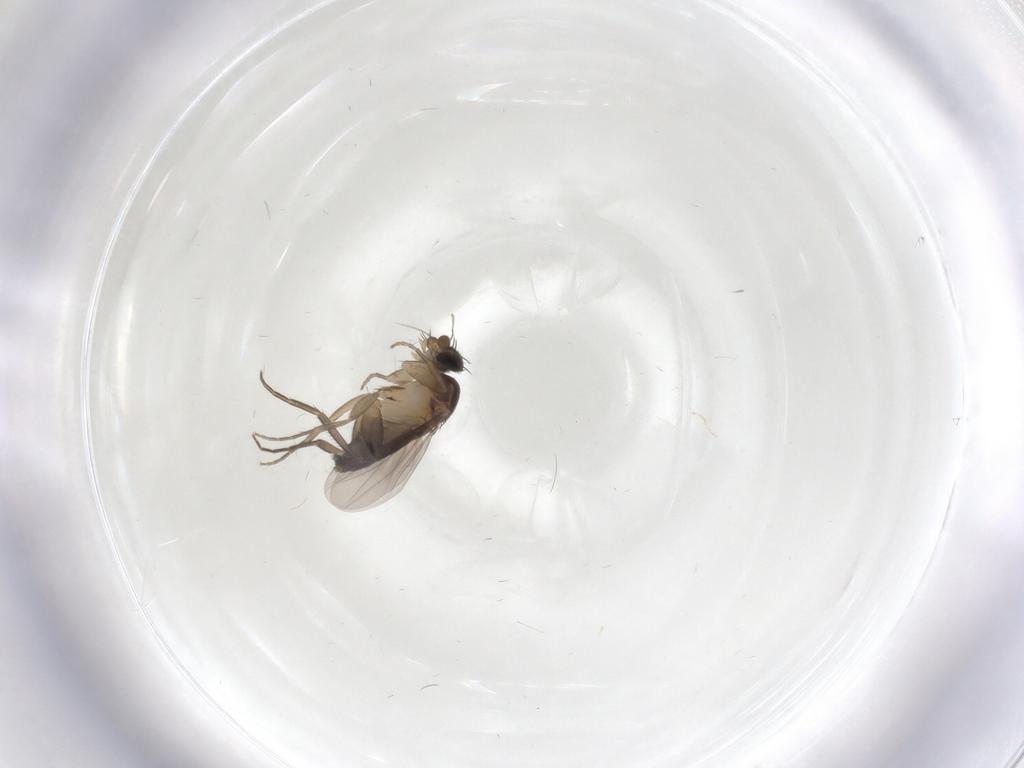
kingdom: Animalia
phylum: Arthropoda
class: Insecta
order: Diptera
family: Phoridae
